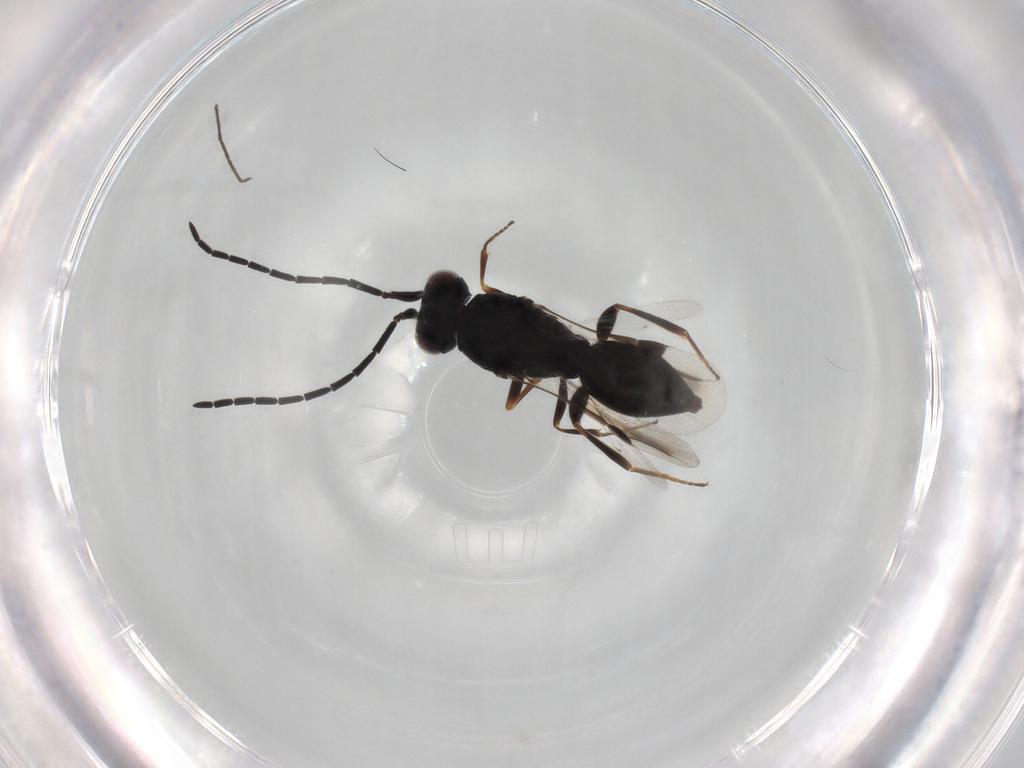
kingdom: Animalia
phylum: Arthropoda
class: Insecta
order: Hymenoptera
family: Megaspilidae
